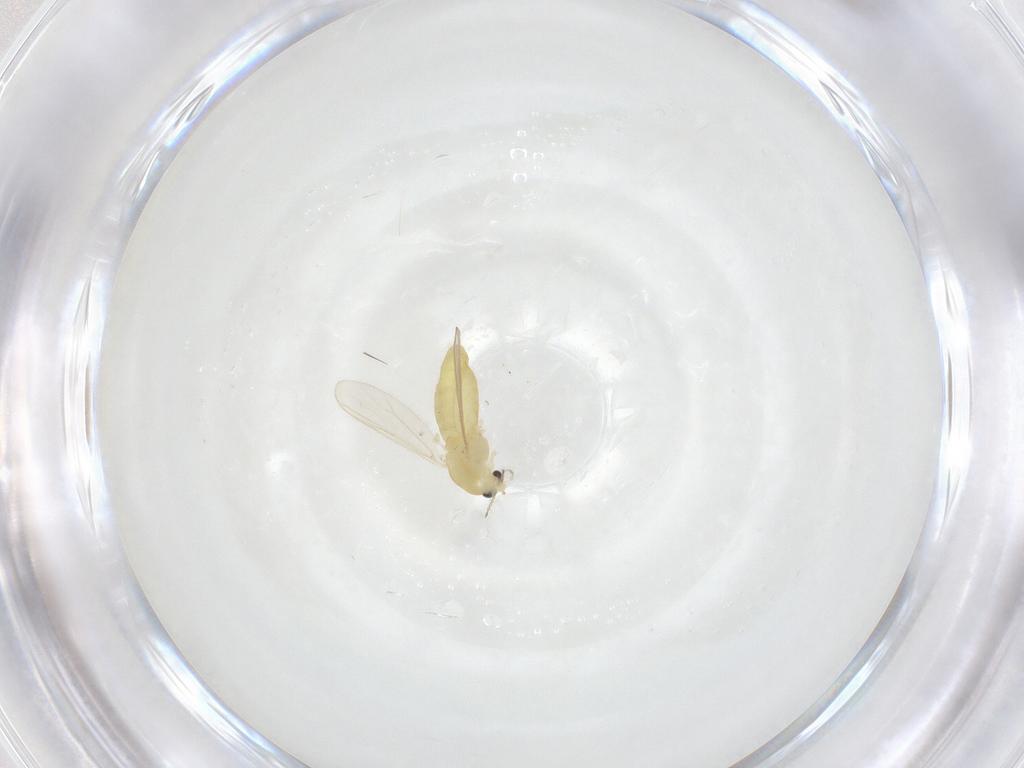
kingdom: Animalia
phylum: Arthropoda
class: Insecta
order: Diptera
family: Chironomidae
